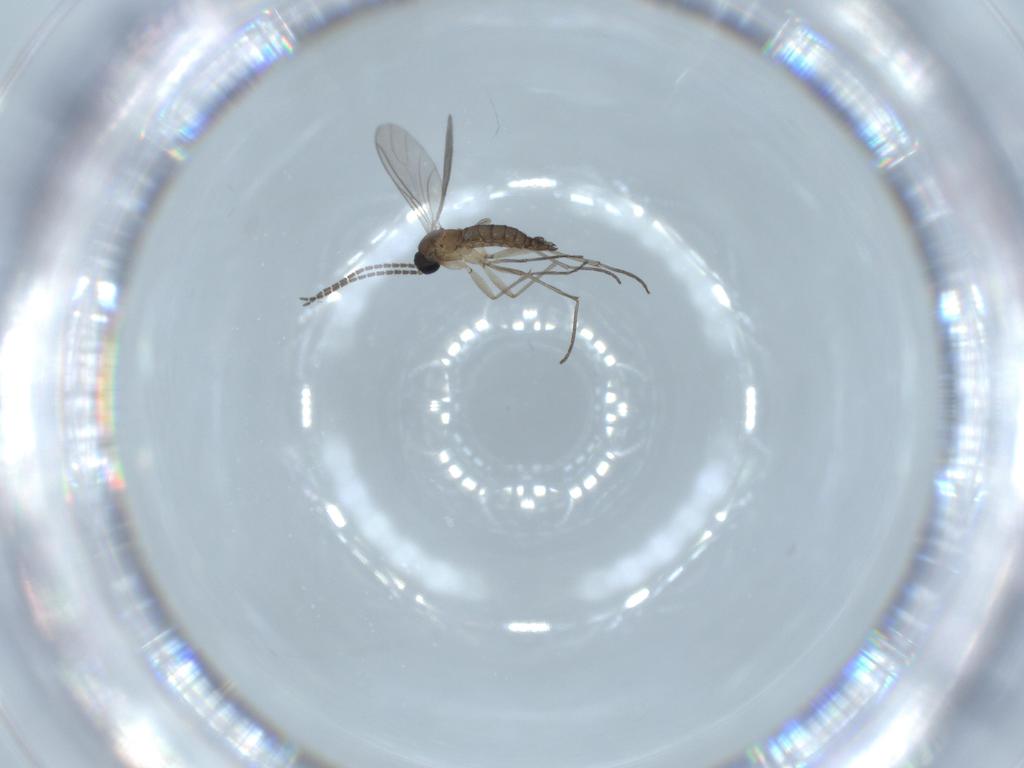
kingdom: Animalia
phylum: Arthropoda
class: Insecta
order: Diptera
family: Sciaridae
